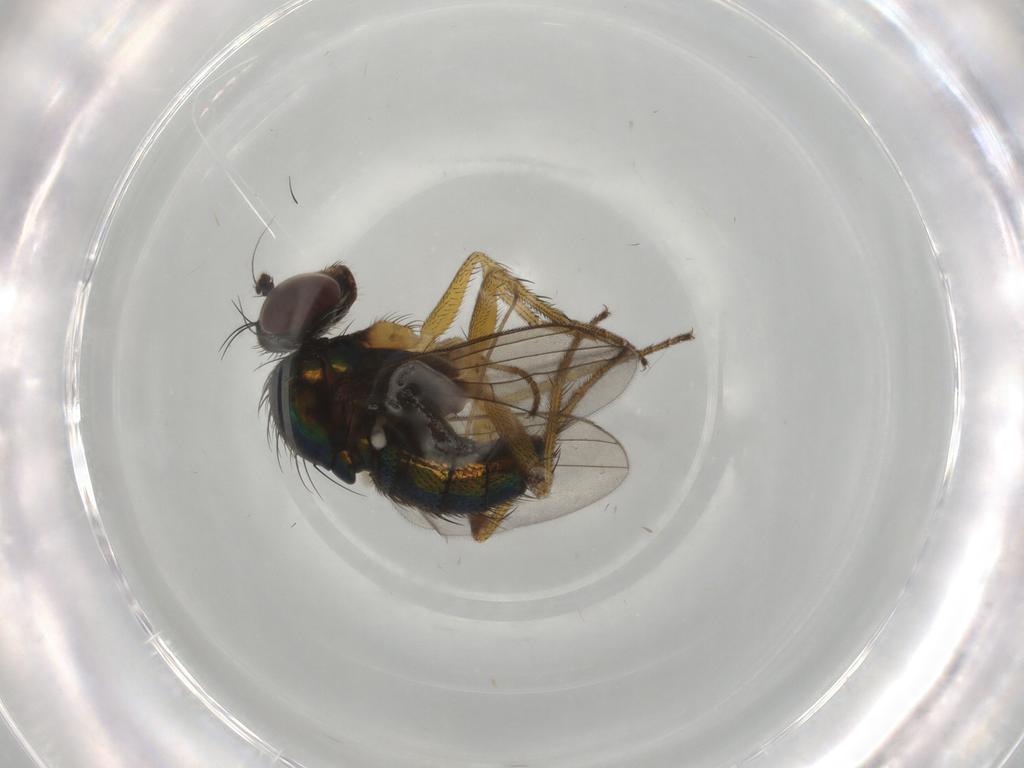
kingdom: Animalia
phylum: Arthropoda
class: Insecta
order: Diptera
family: Dolichopodidae
